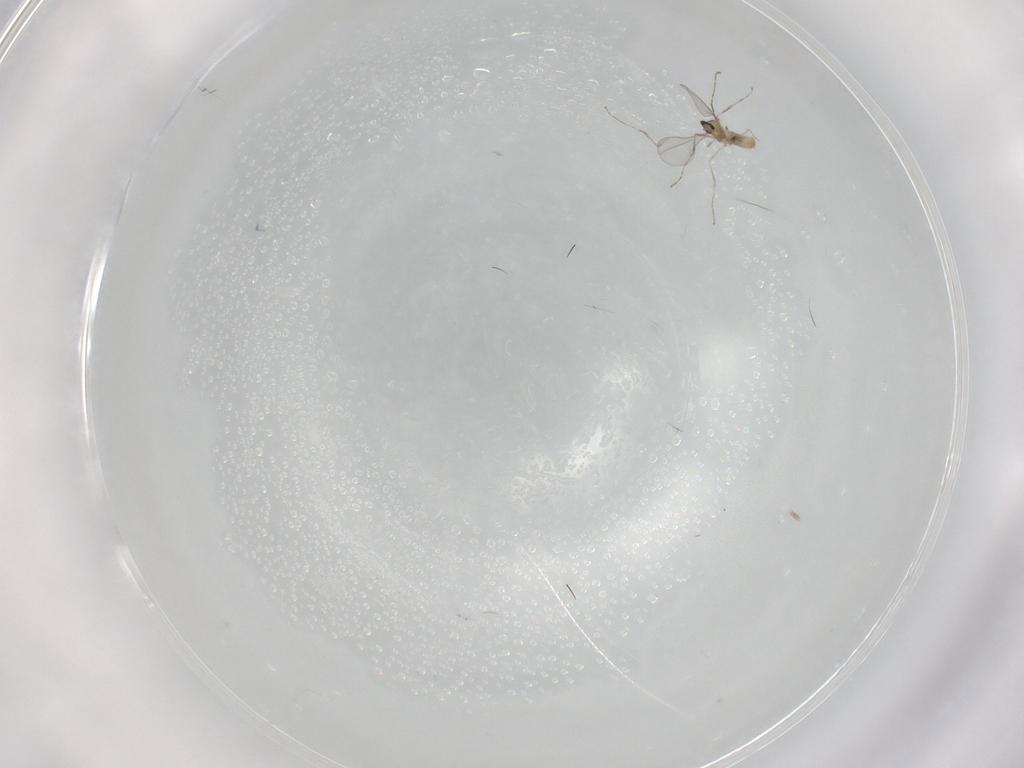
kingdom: Animalia
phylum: Arthropoda
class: Insecta
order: Diptera
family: Cecidomyiidae
